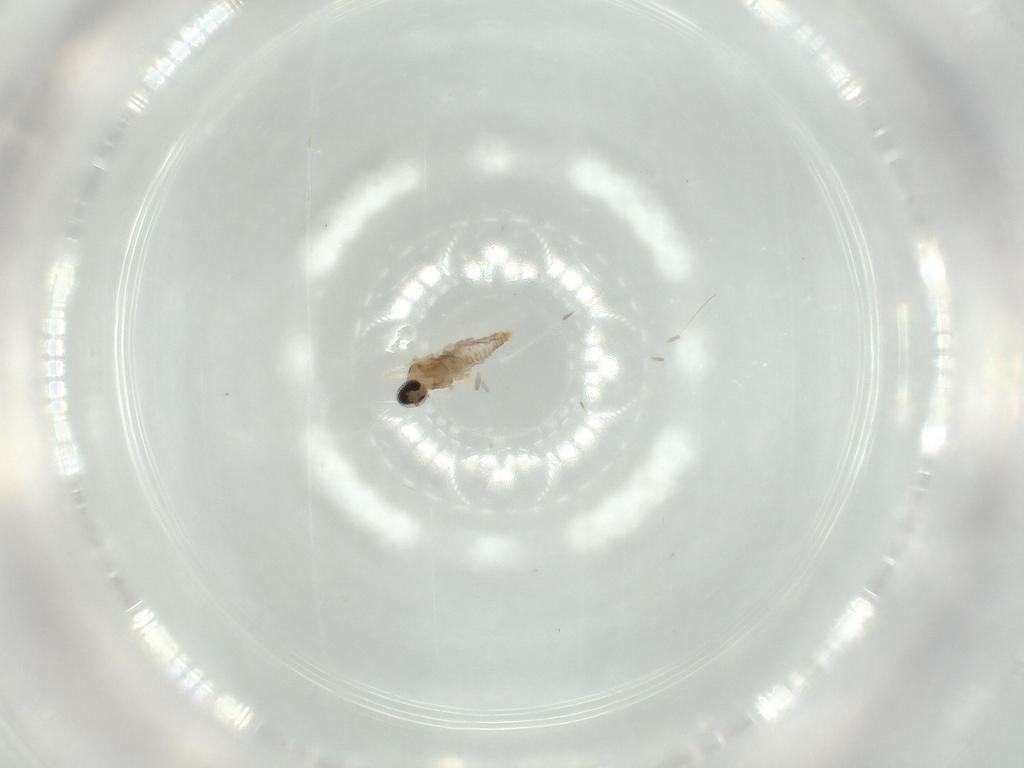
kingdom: Animalia
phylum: Arthropoda
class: Insecta
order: Diptera
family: Cecidomyiidae
